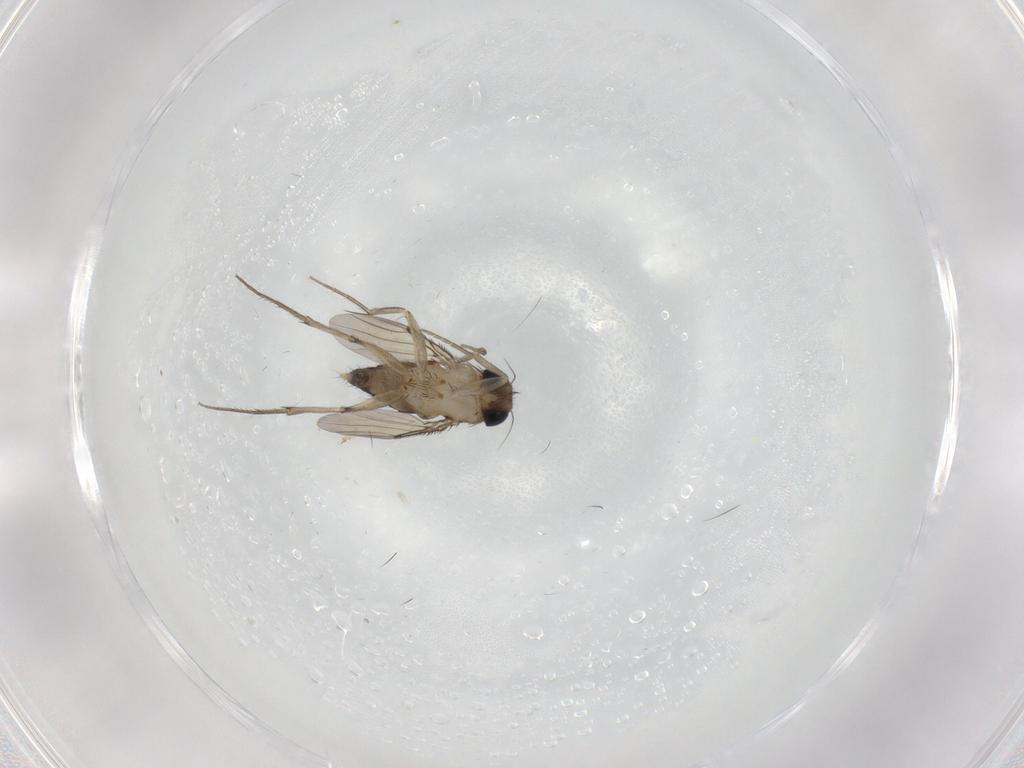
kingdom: Animalia
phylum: Arthropoda
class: Insecta
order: Diptera
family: Phoridae
